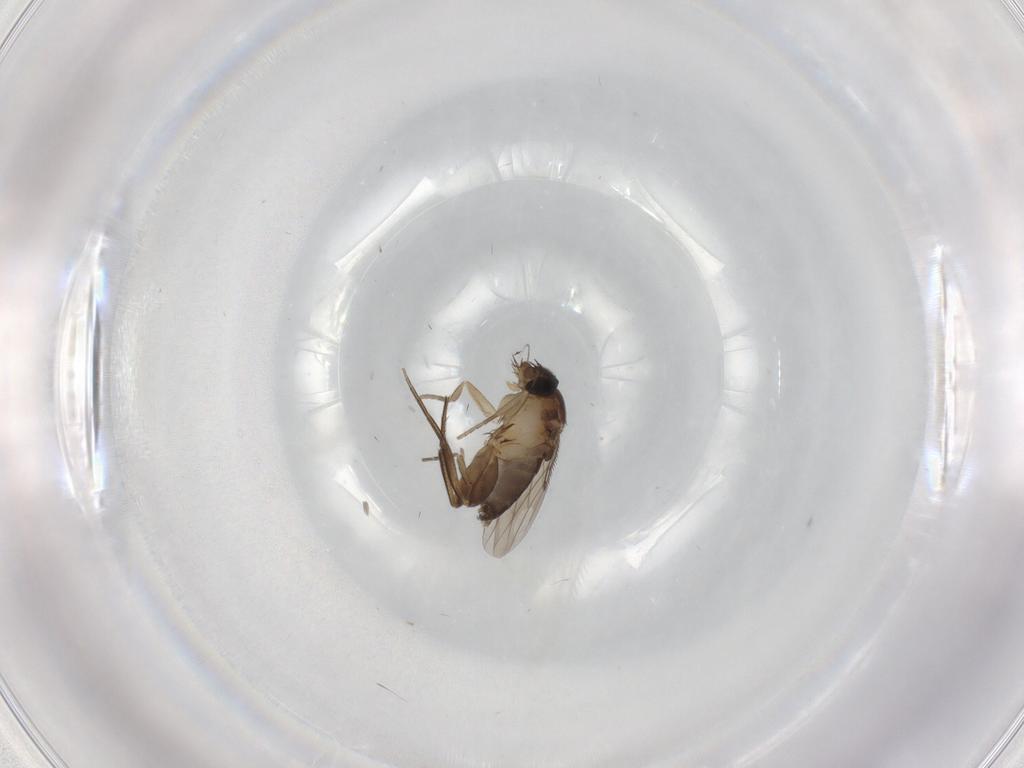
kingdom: Animalia
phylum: Arthropoda
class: Insecta
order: Diptera
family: Phoridae
